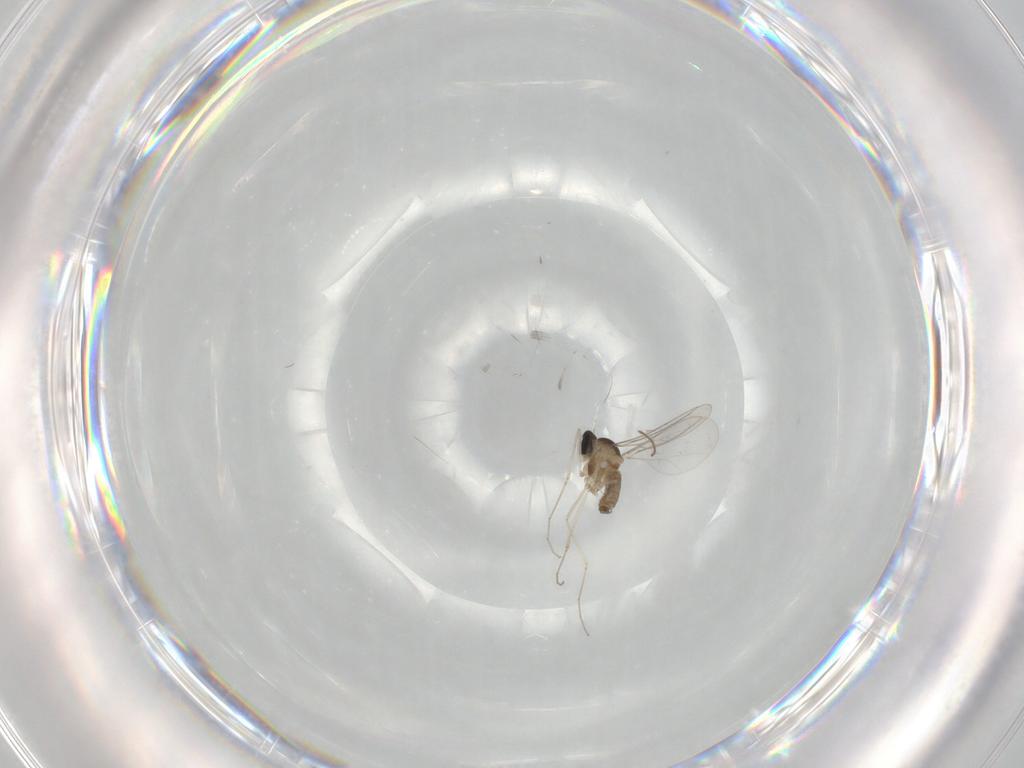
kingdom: Animalia
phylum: Arthropoda
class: Insecta
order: Diptera
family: Cecidomyiidae
